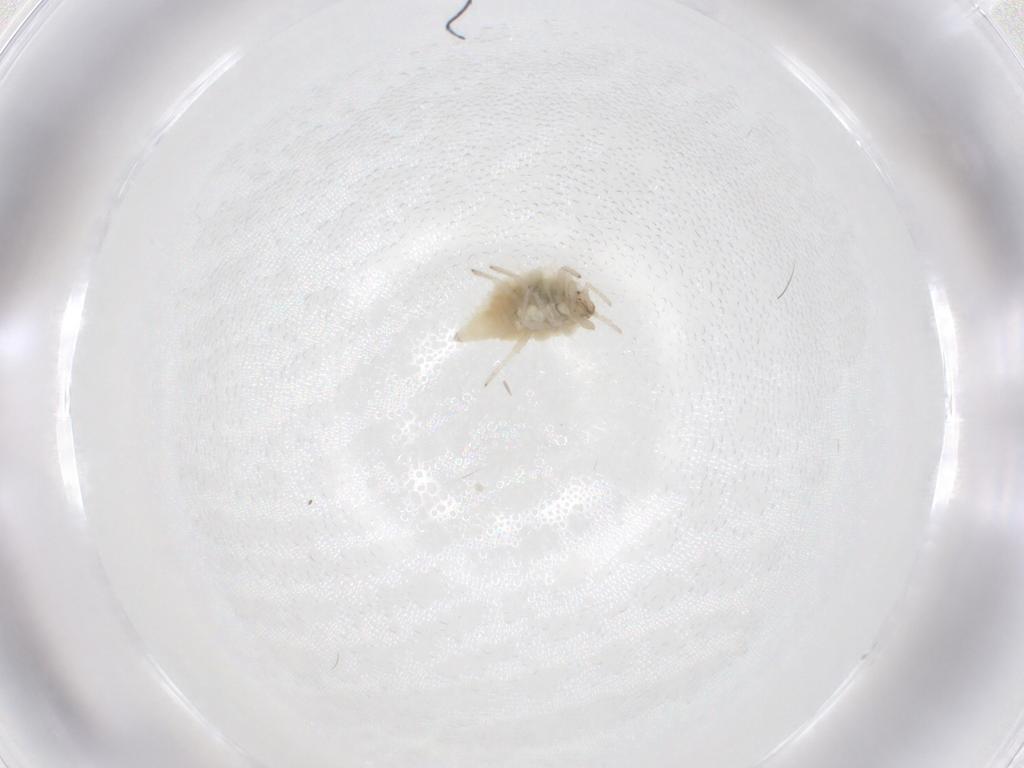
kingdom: Animalia
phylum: Arthropoda
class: Insecta
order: Neuroptera
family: Coniopterygidae
